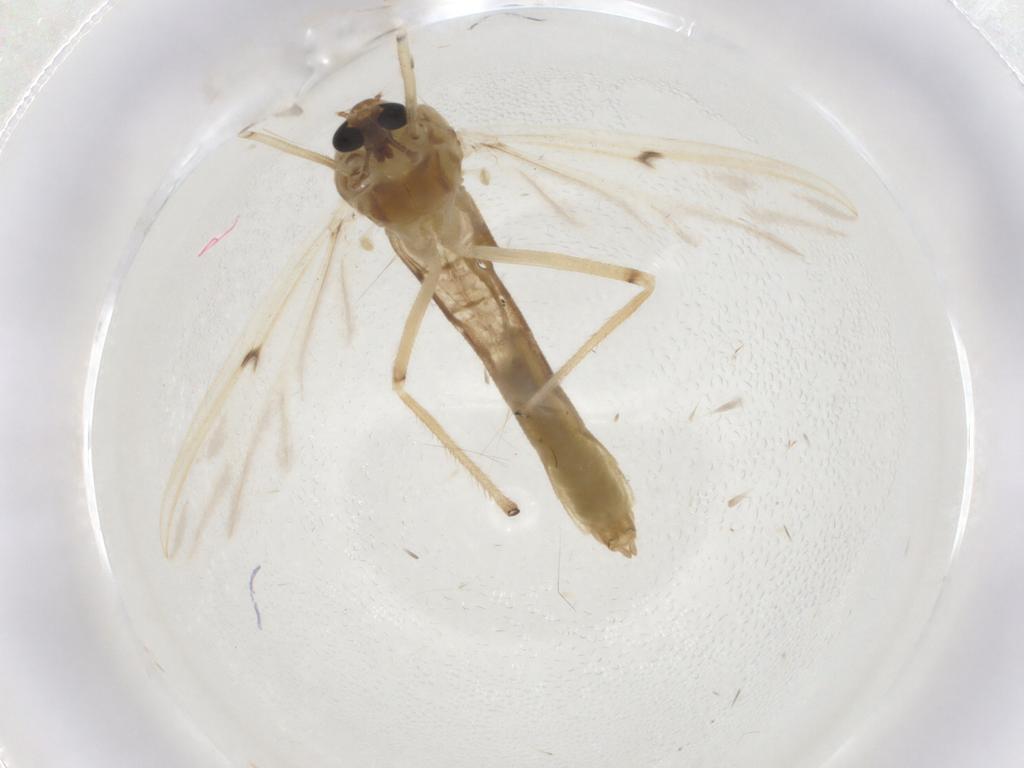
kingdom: Animalia
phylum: Arthropoda
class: Insecta
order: Diptera
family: Chironomidae
